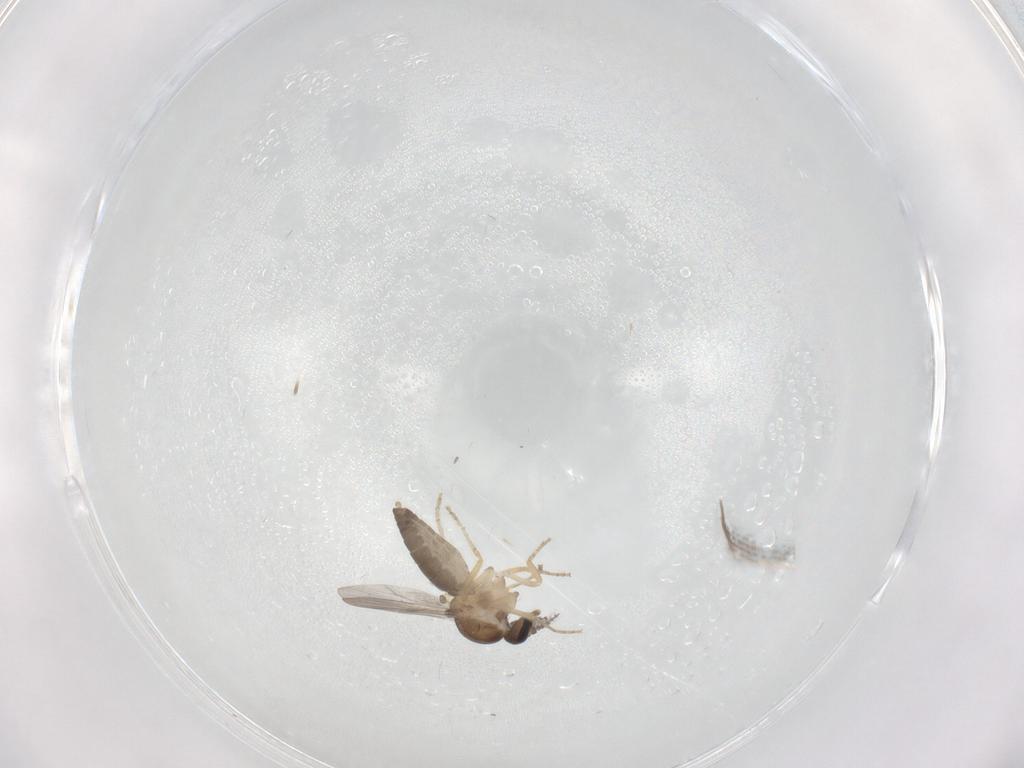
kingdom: Animalia
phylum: Arthropoda
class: Insecta
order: Diptera
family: Ceratopogonidae
